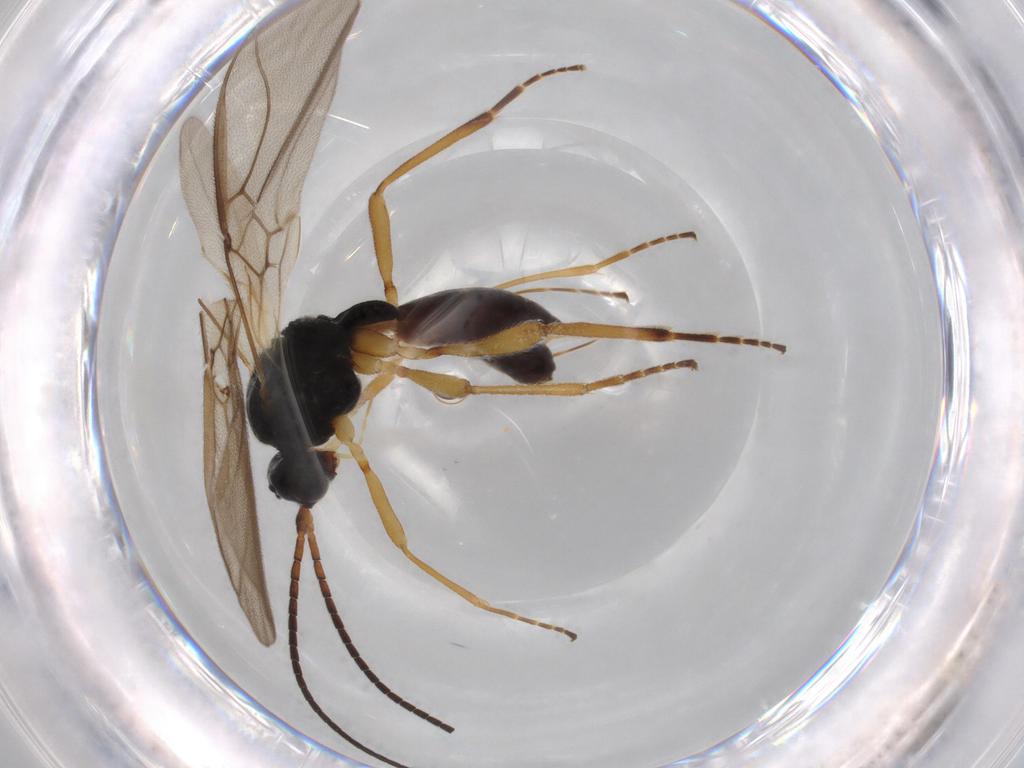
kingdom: Animalia
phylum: Arthropoda
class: Insecta
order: Hymenoptera
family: Braconidae
